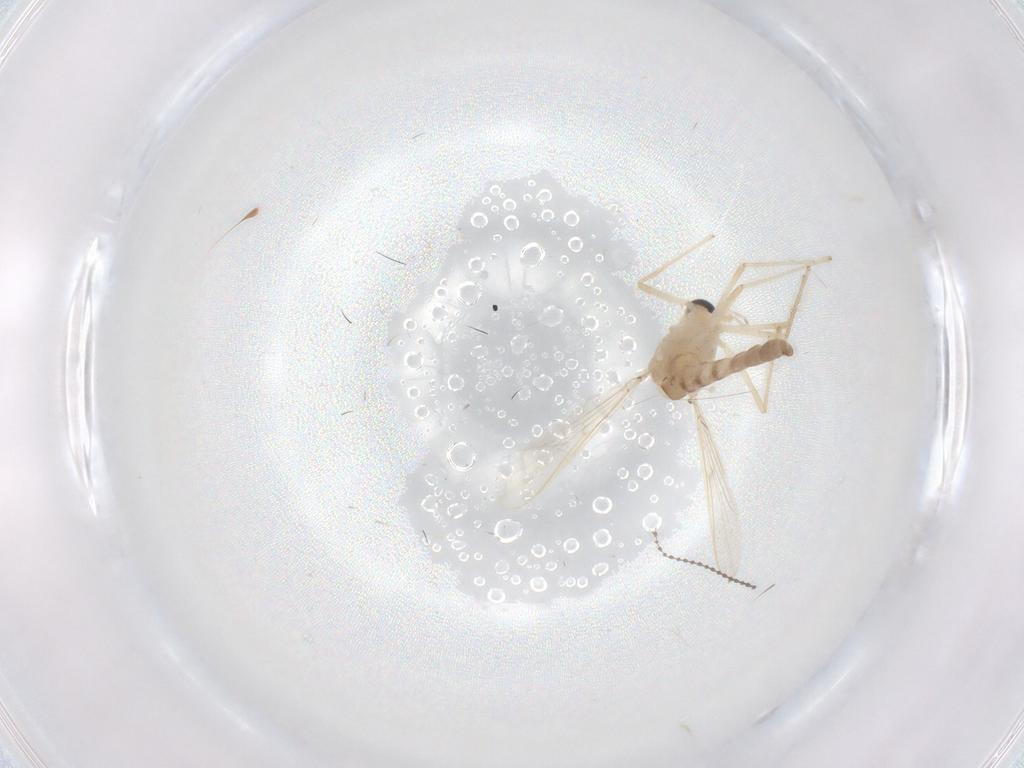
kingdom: Animalia
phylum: Arthropoda
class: Insecta
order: Diptera
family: Chironomidae
